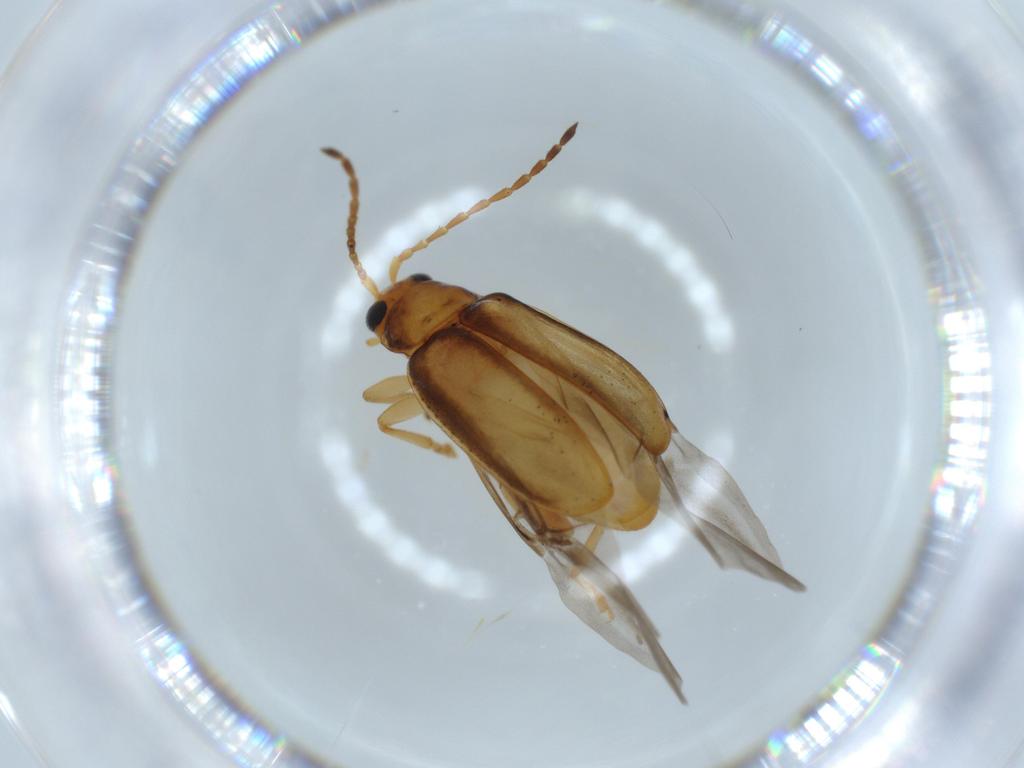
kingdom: Animalia
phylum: Arthropoda
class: Insecta
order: Coleoptera
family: Chrysomelidae
